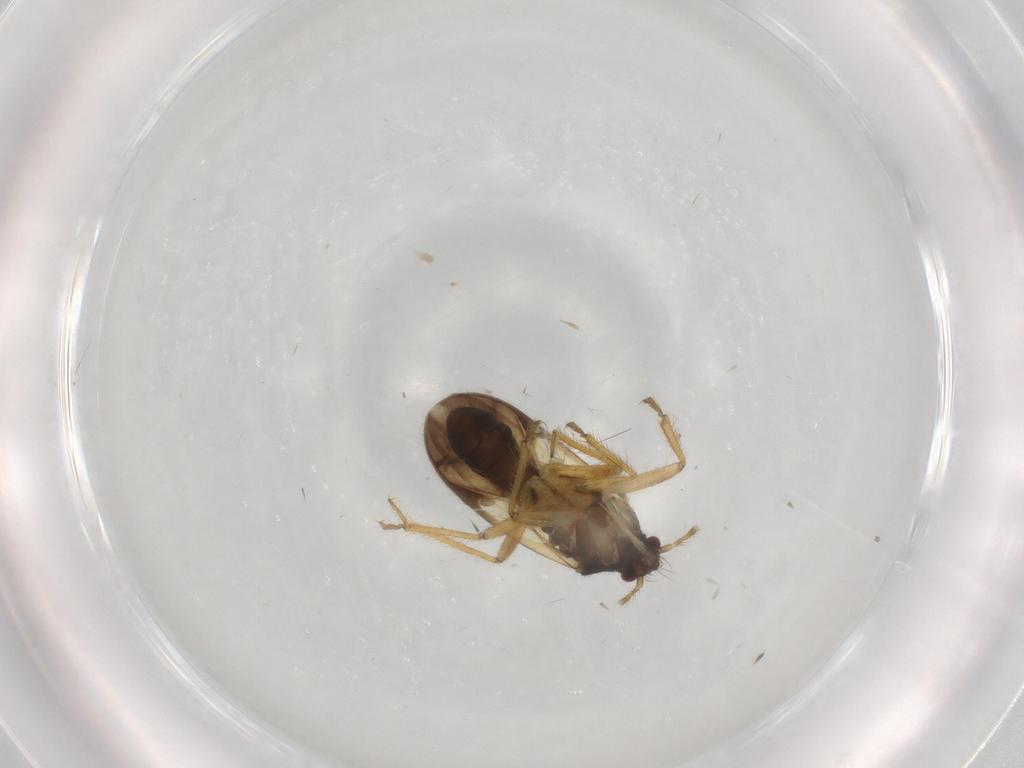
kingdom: Animalia
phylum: Arthropoda
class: Insecta
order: Hemiptera
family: Ceratocombidae
